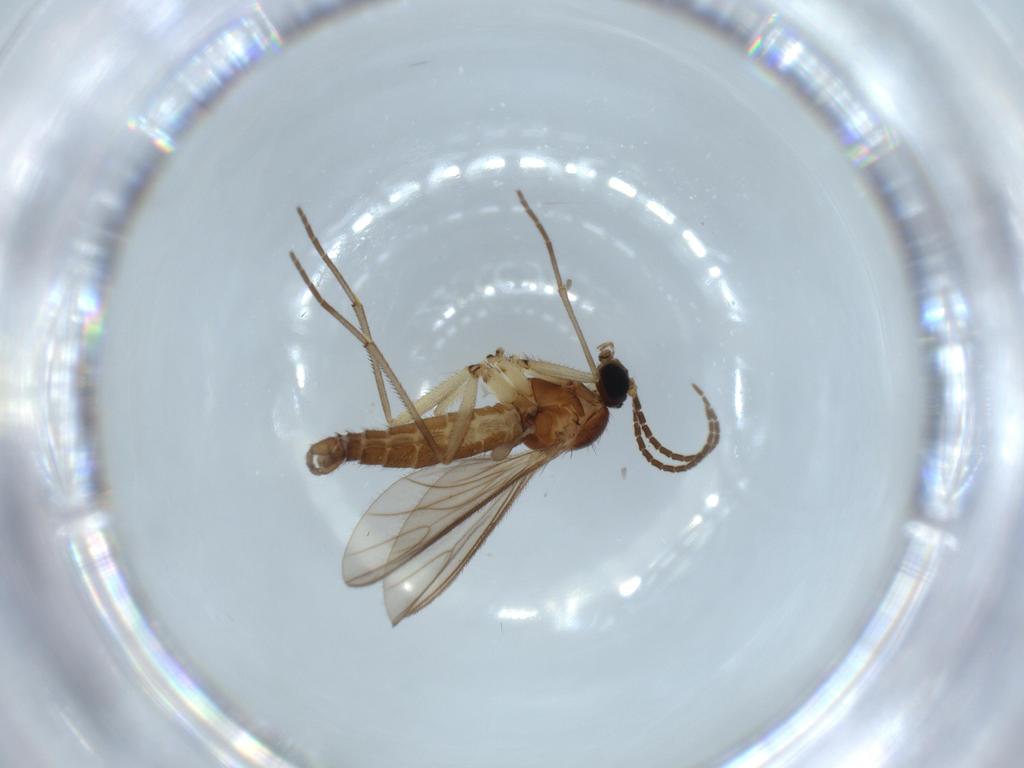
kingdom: Animalia
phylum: Arthropoda
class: Insecta
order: Diptera
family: Sciaridae
